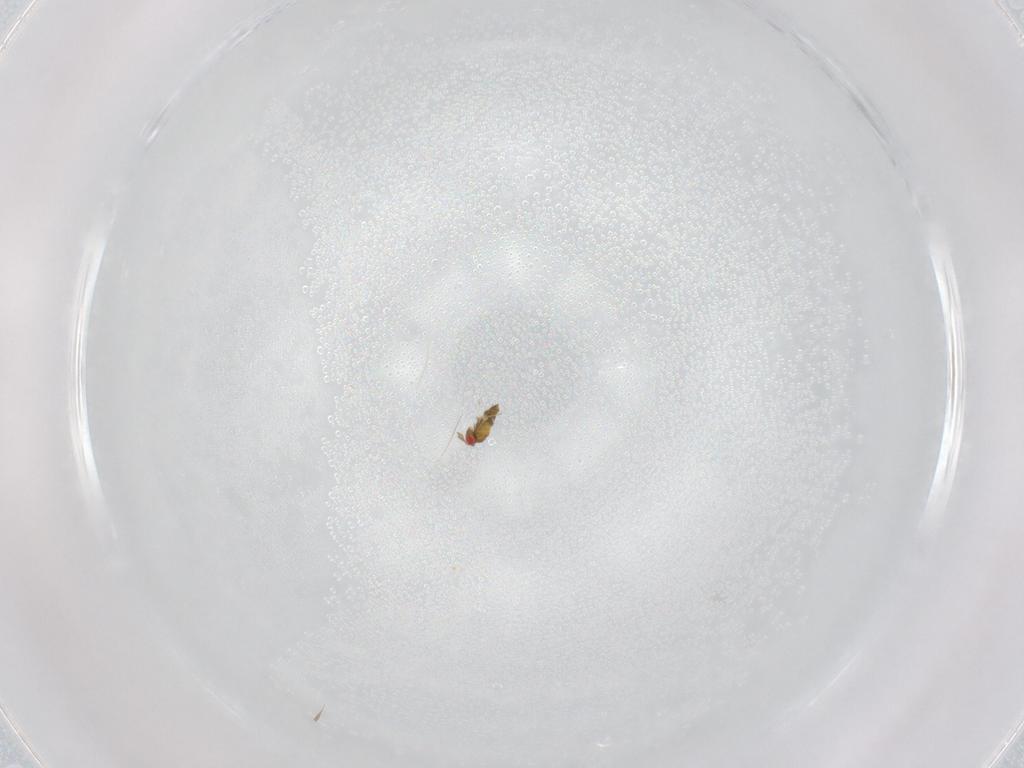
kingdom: Animalia
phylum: Arthropoda
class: Insecta
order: Hymenoptera
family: Trichogrammatidae
